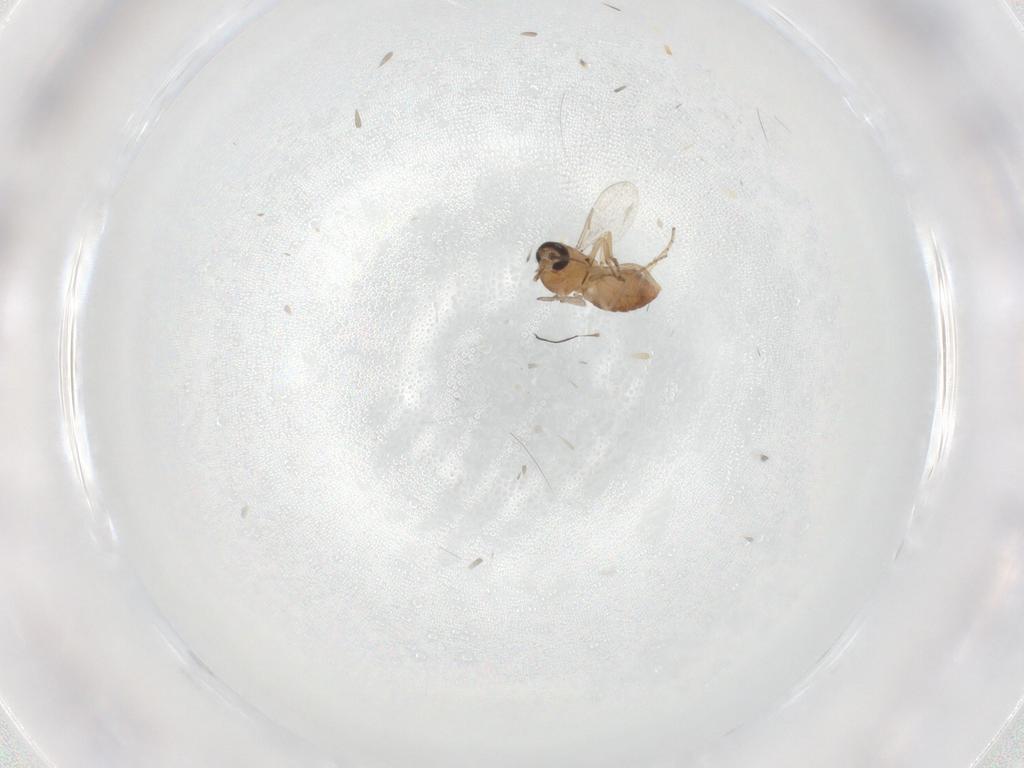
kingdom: Animalia
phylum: Arthropoda
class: Insecta
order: Diptera
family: Ceratopogonidae
